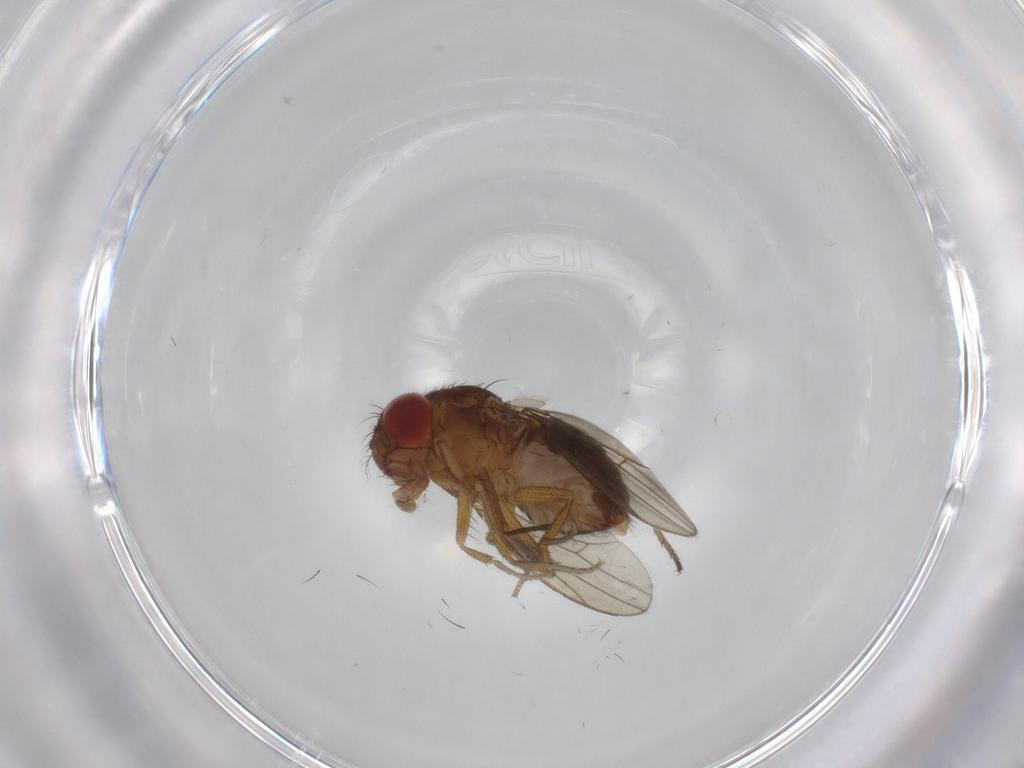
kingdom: Animalia
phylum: Arthropoda
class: Insecta
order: Diptera
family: Drosophilidae
